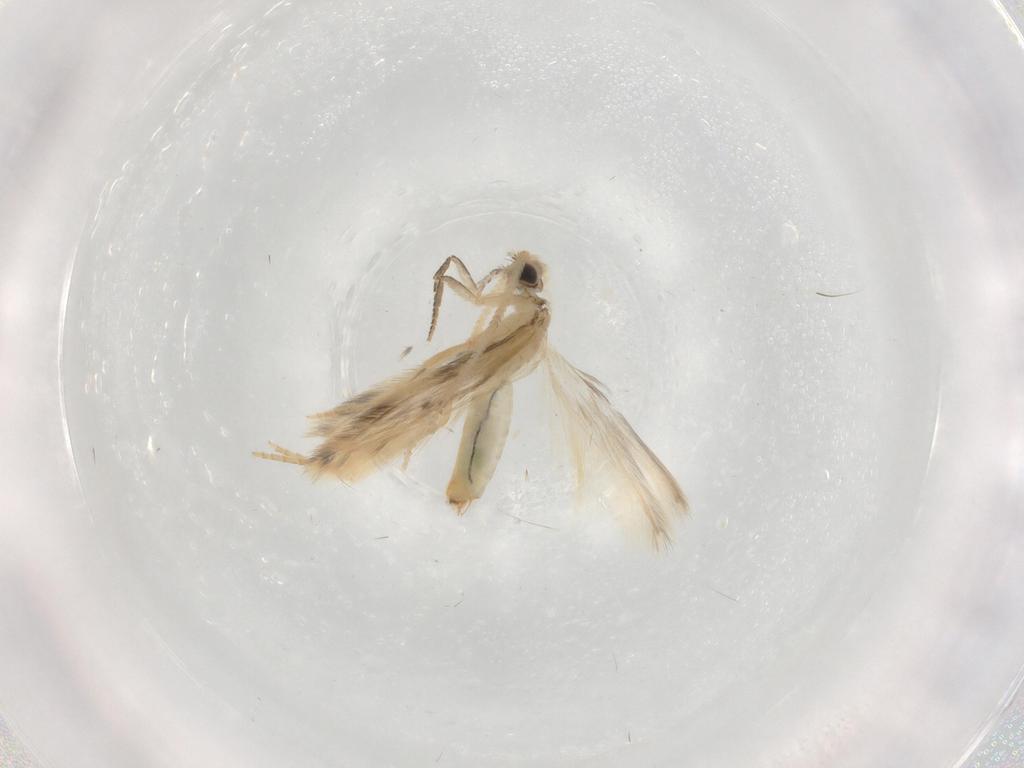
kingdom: Animalia
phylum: Arthropoda
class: Insecta
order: Trichoptera
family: Hydroptilidae
